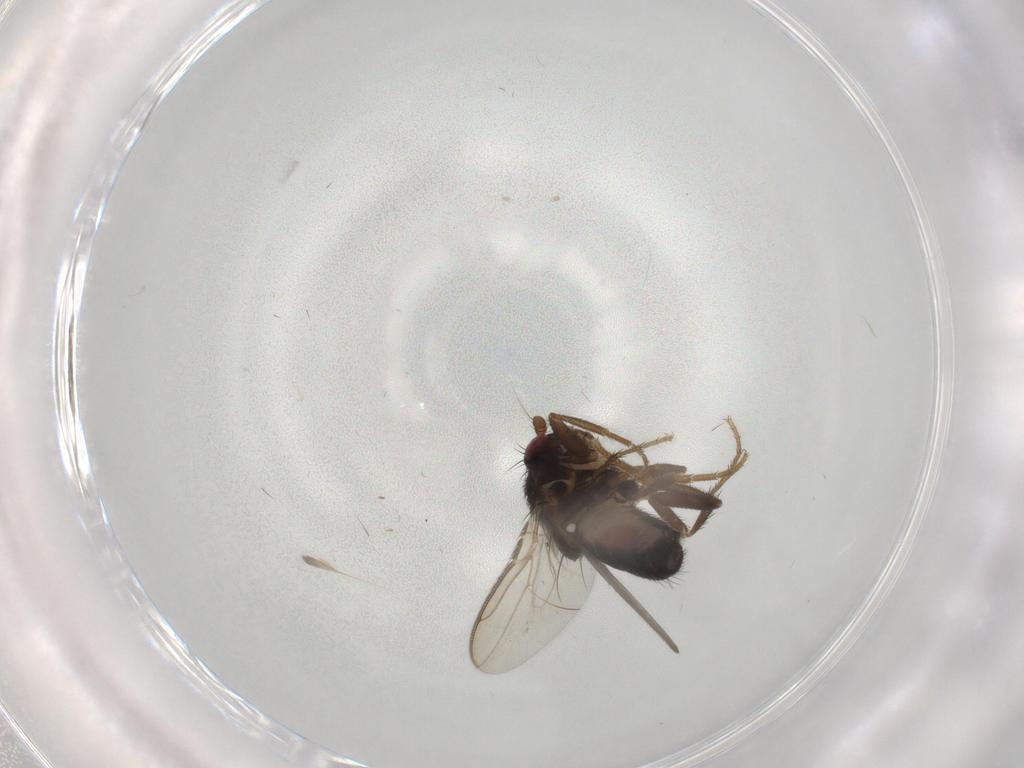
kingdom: Animalia
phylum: Arthropoda
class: Insecta
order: Diptera
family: Sphaeroceridae
